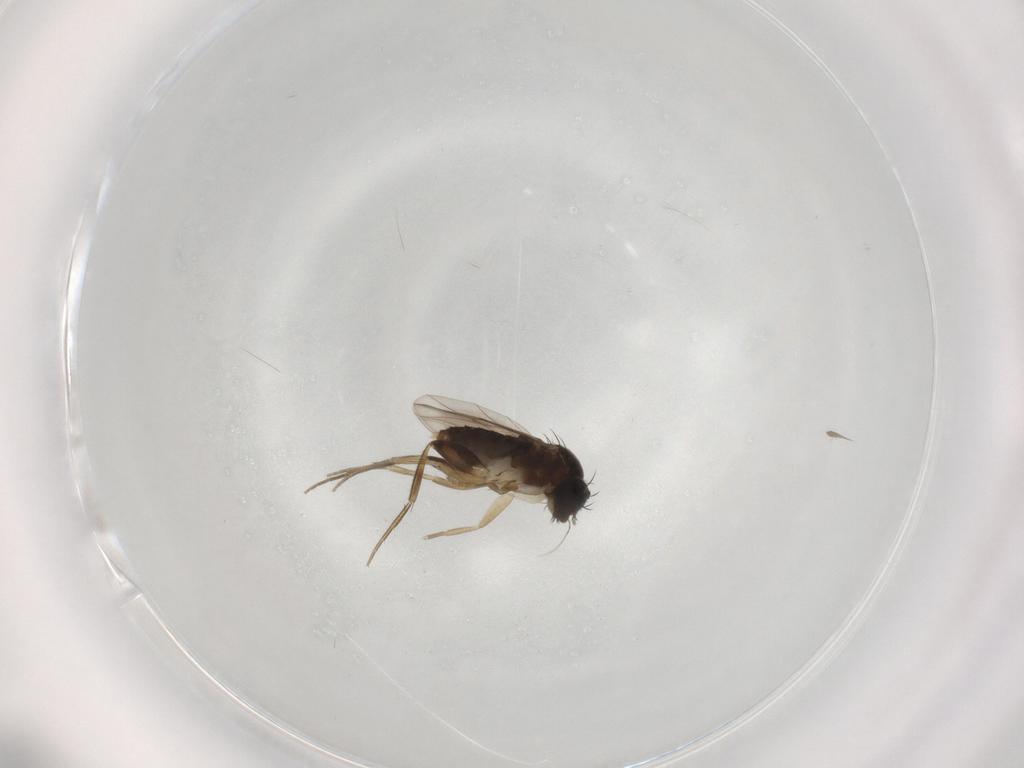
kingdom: Animalia
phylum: Arthropoda
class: Insecta
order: Diptera
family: Phoridae
